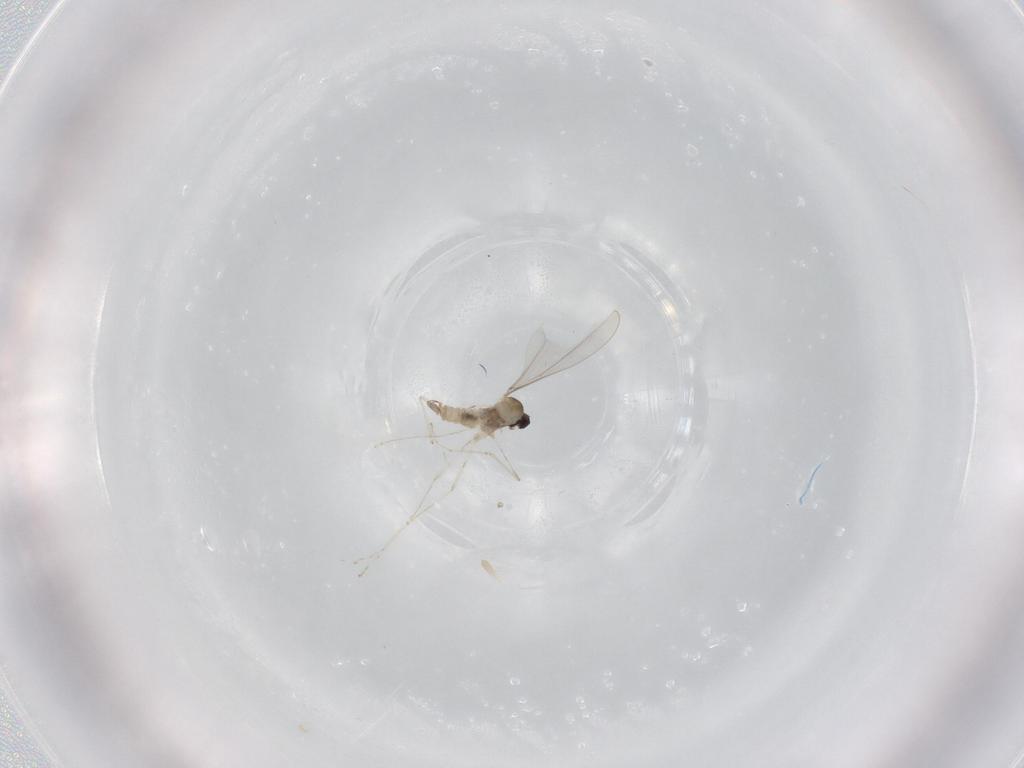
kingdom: Animalia
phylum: Arthropoda
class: Insecta
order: Diptera
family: Cecidomyiidae
